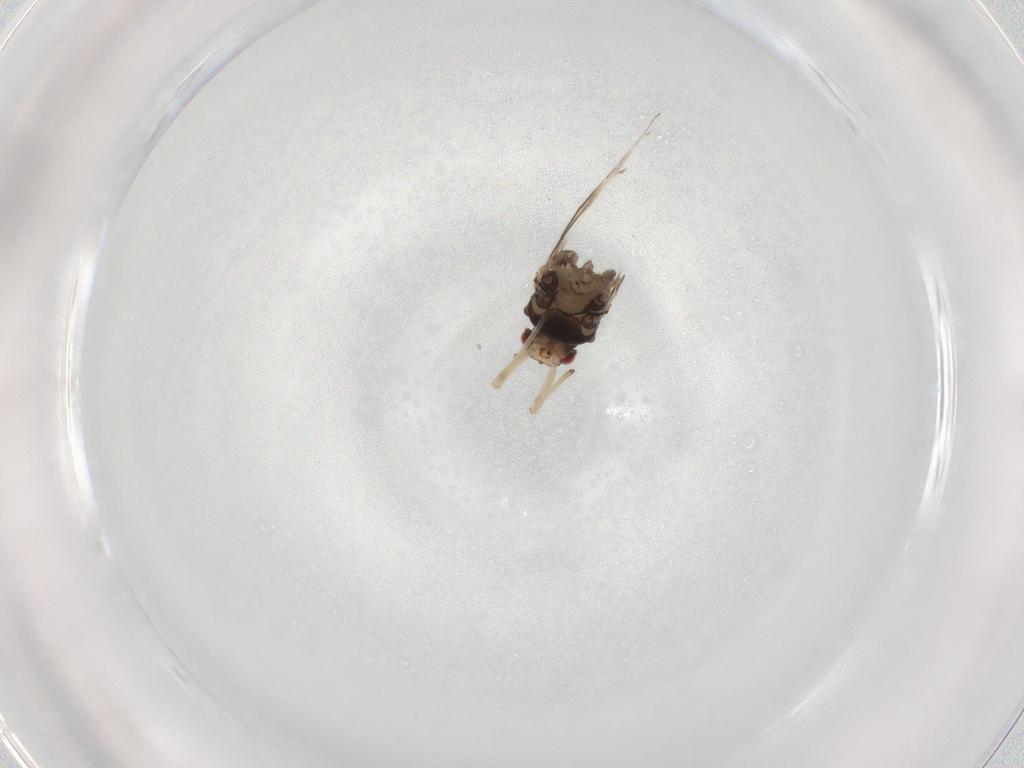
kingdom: Animalia
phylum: Arthropoda
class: Insecta
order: Hemiptera
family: Aphididae
